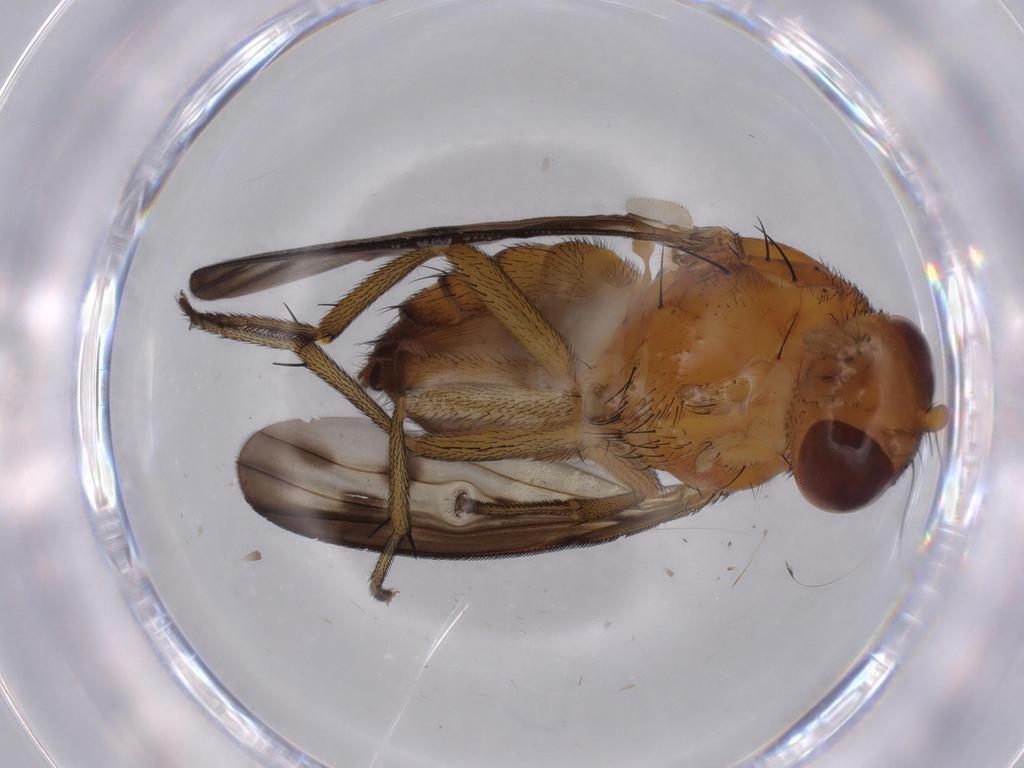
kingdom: Animalia
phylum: Arthropoda
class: Insecta
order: Diptera
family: Cecidomyiidae
